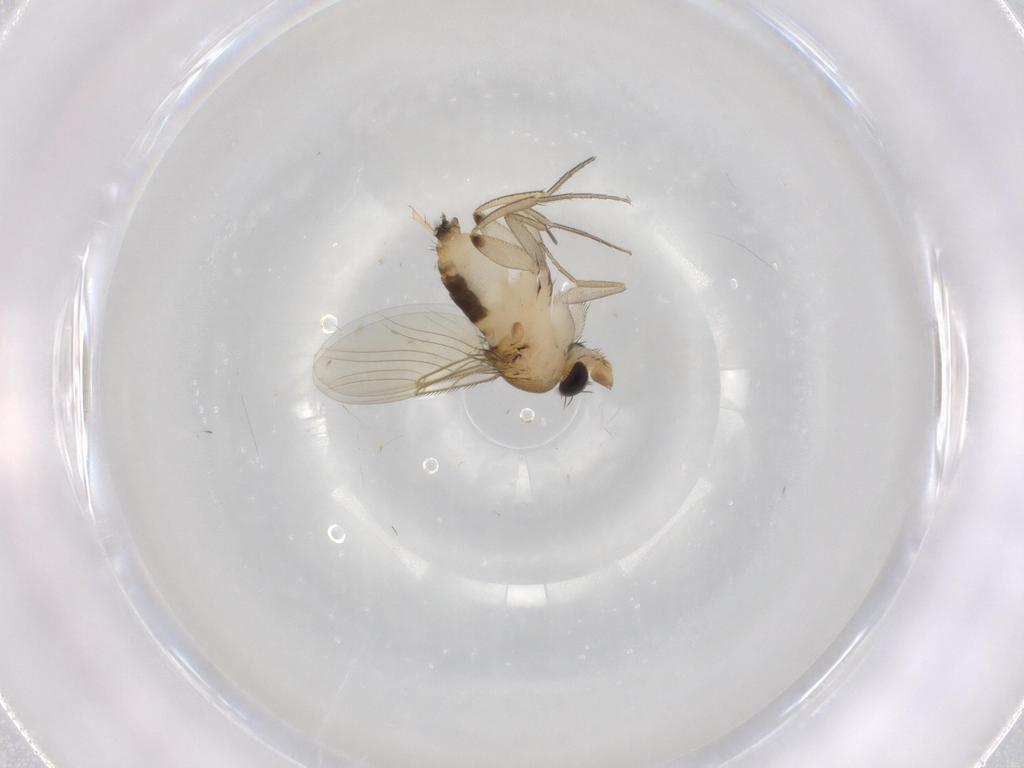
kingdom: Animalia
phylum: Arthropoda
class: Insecta
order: Diptera
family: Phoridae
